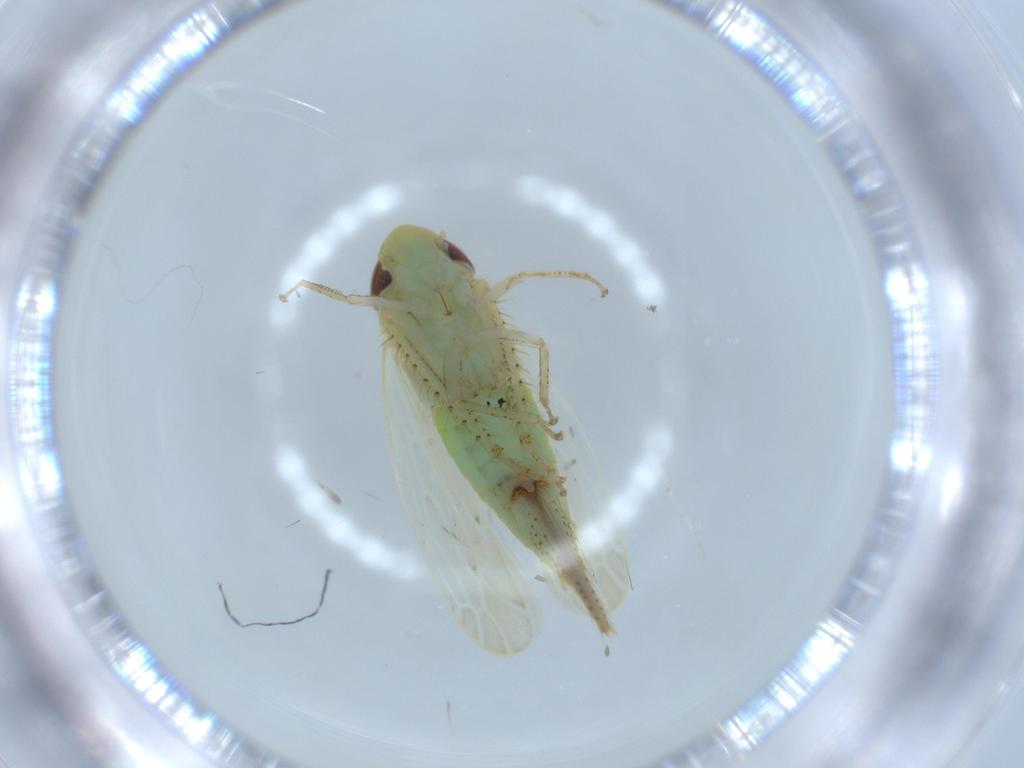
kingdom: Animalia
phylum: Arthropoda
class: Insecta
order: Hemiptera
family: Cicadellidae
